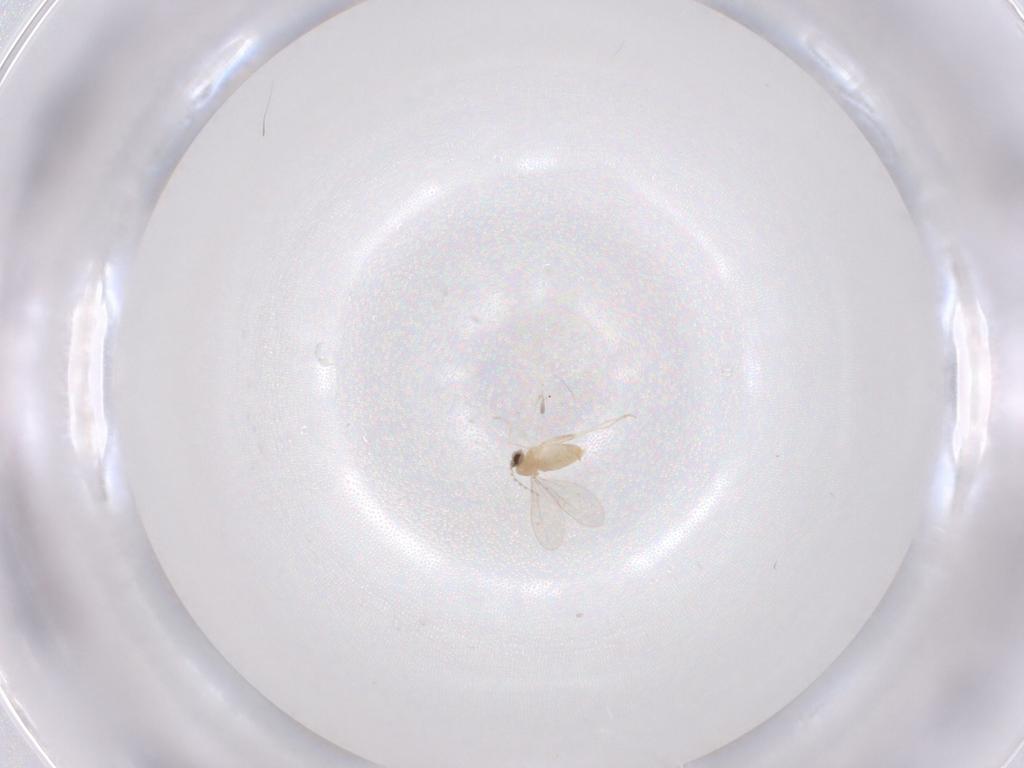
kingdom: Animalia
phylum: Arthropoda
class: Insecta
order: Diptera
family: Cecidomyiidae
